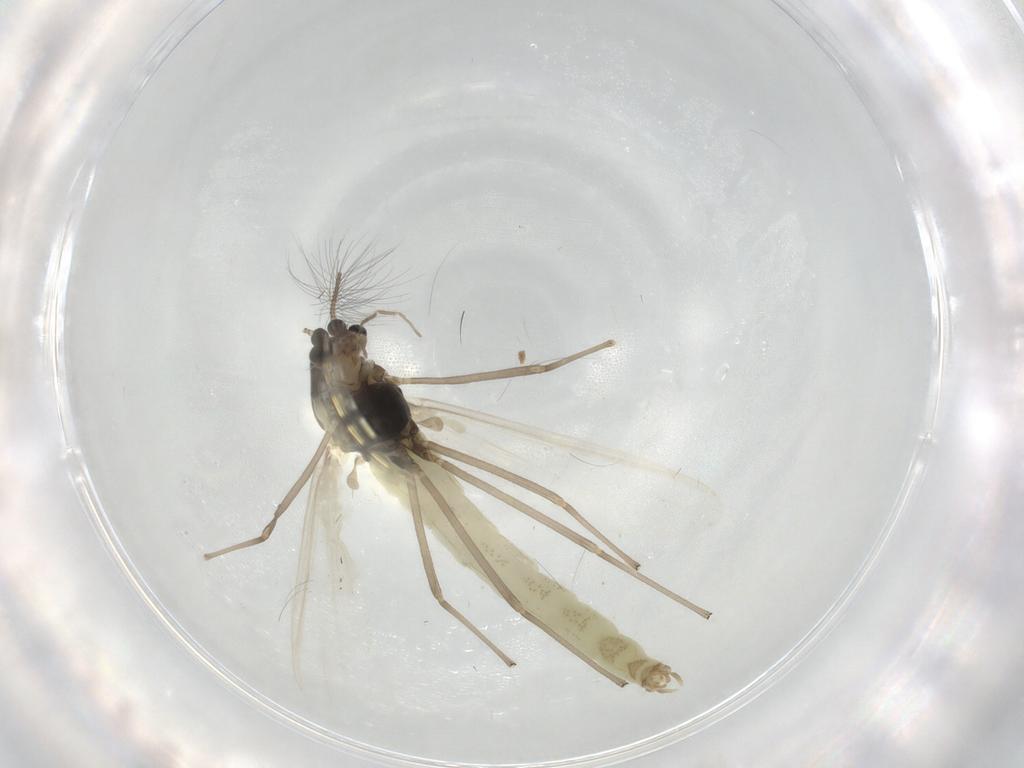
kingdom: Animalia
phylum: Arthropoda
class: Insecta
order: Diptera
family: Chironomidae
